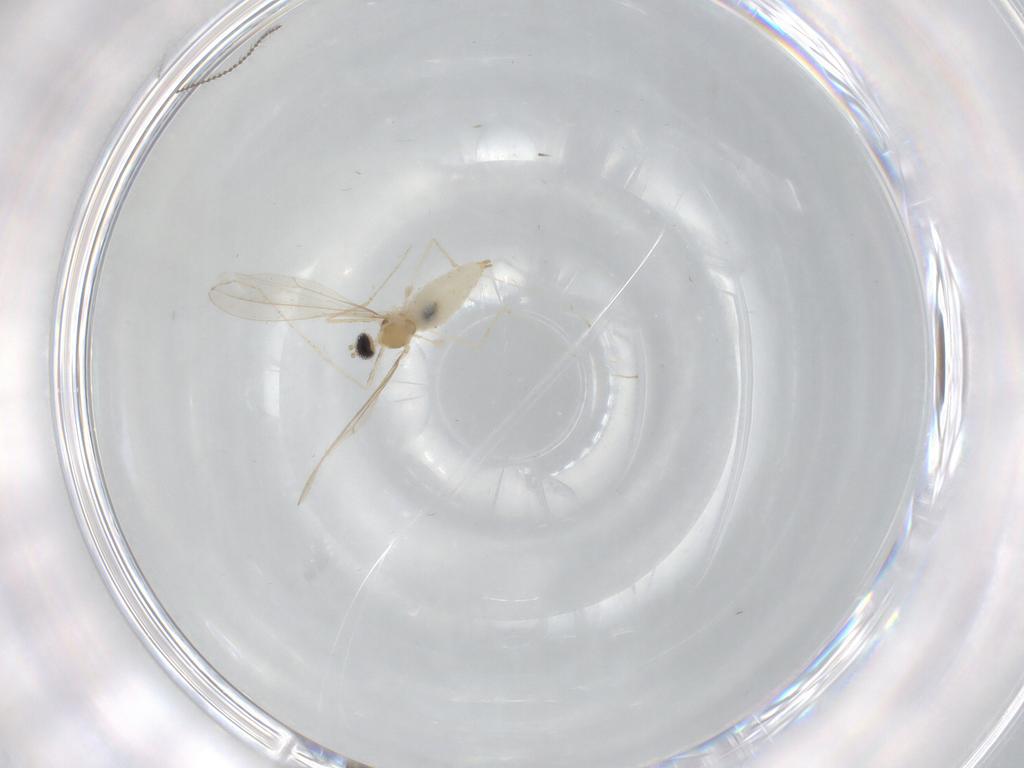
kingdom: Animalia
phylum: Arthropoda
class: Insecta
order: Diptera
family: Cecidomyiidae
